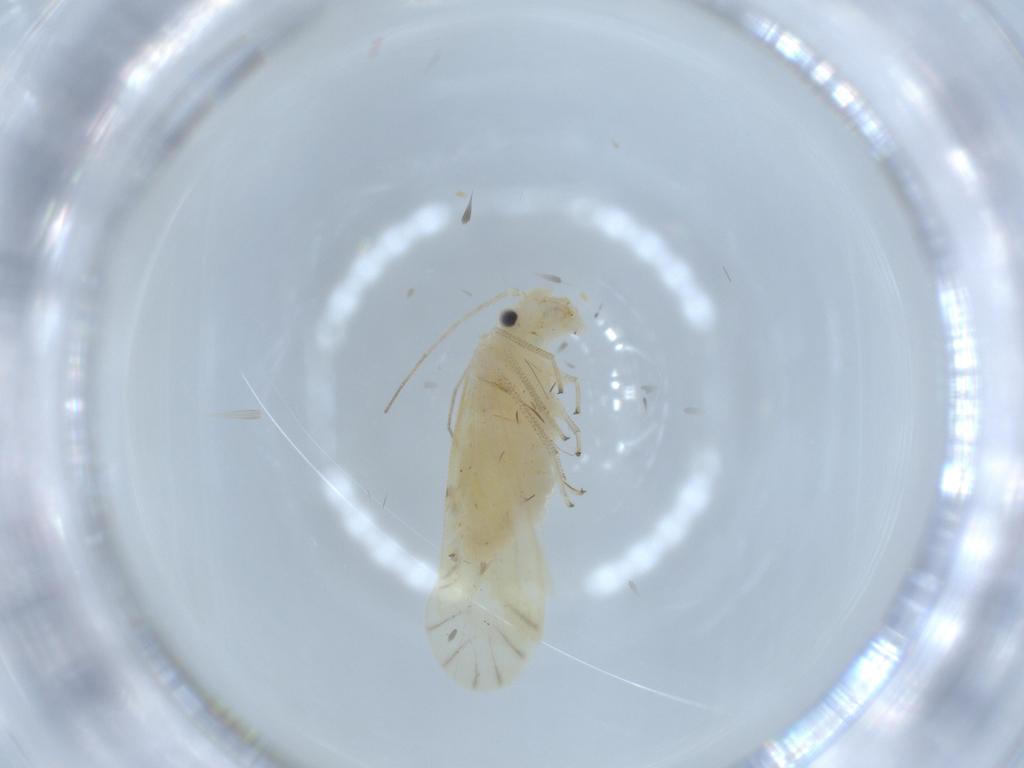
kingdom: Animalia
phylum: Arthropoda
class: Insecta
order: Psocodea
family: Caeciliusidae
